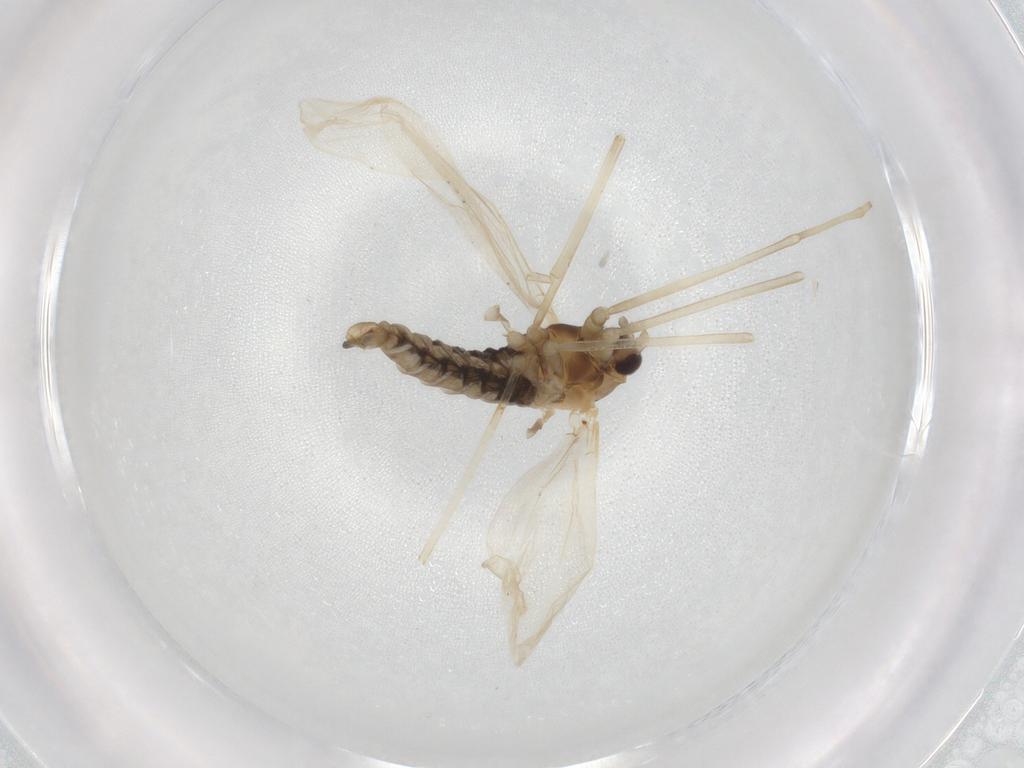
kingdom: Animalia
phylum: Arthropoda
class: Insecta
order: Diptera
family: Cecidomyiidae
